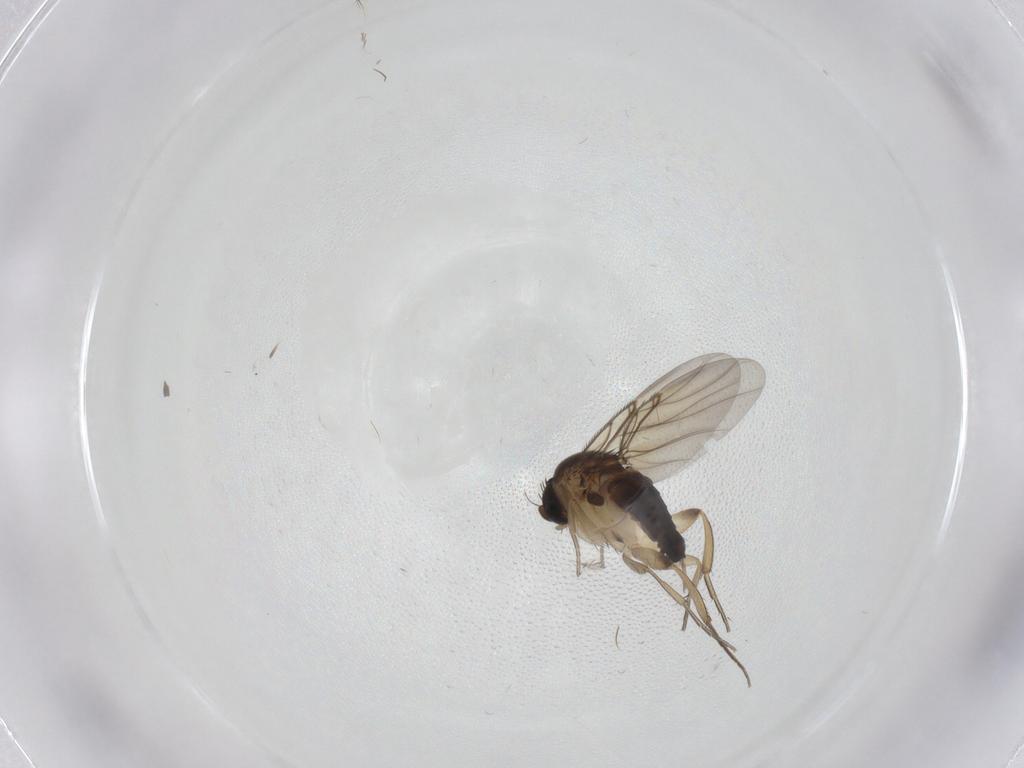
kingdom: Animalia
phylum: Arthropoda
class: Insecta
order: Diptera
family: Phoridae
